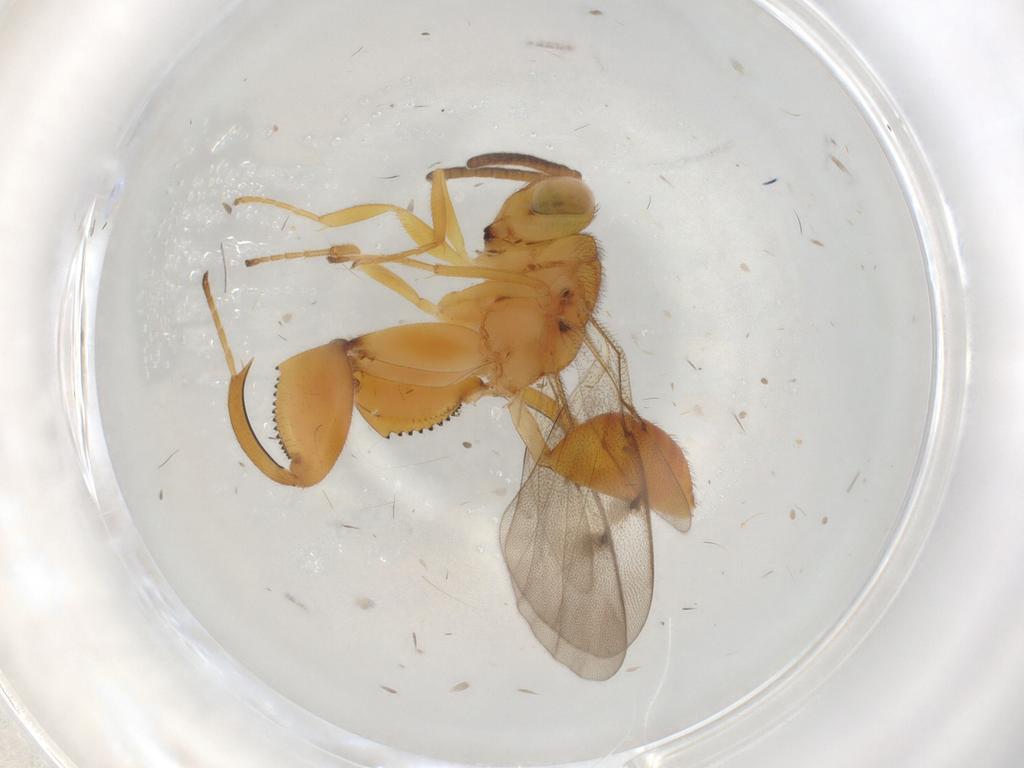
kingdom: Animalia
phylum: Arthropoda
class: Insecta
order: Hymenoptera
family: Chalcididae
